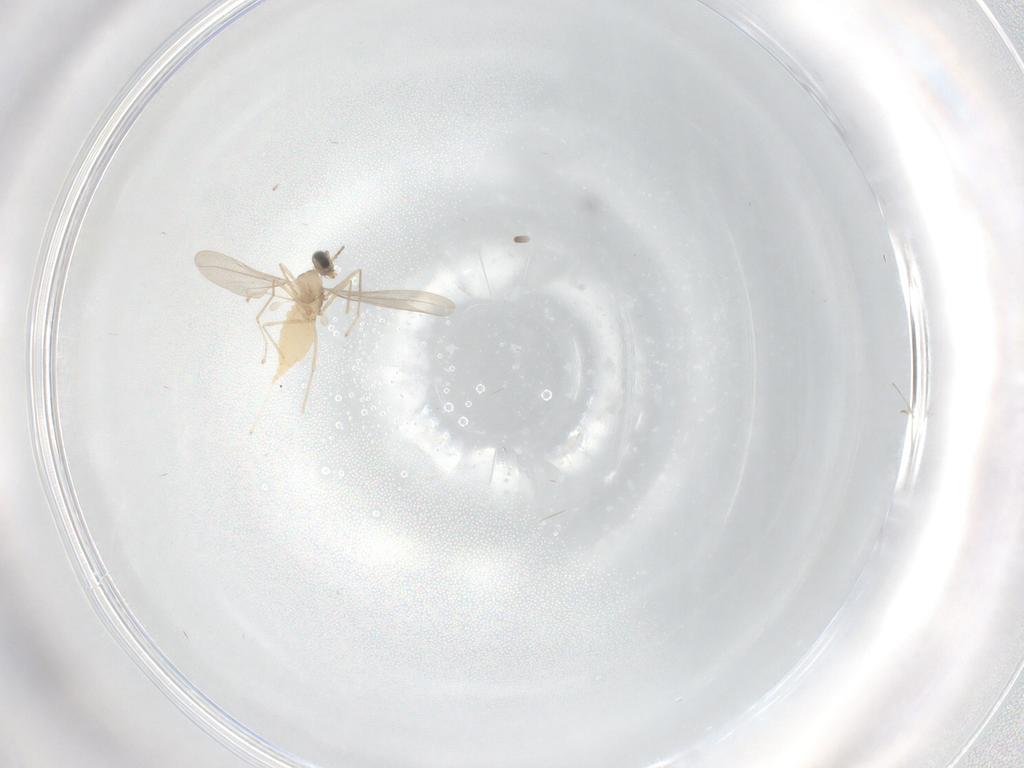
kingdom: Animalia
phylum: Arthropoda
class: Insecta
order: Diptera
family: Cecidomyiidae
